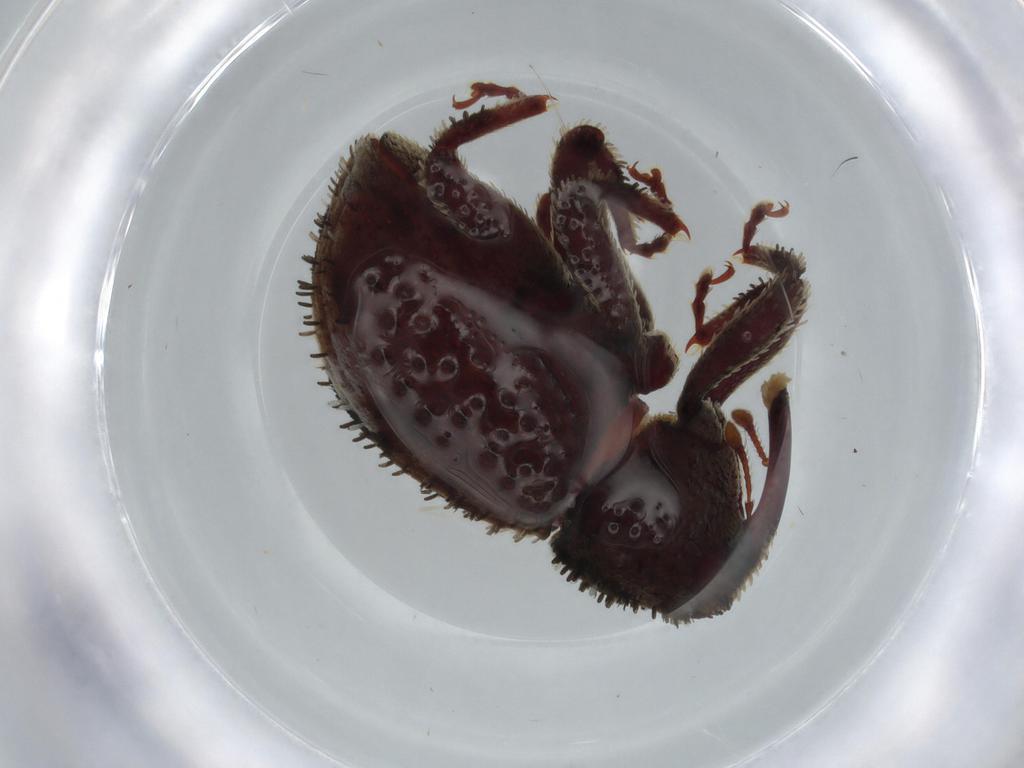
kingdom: Animalia
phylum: Arthropoda
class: Insecta
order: Coleoptera
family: Curculionidae
